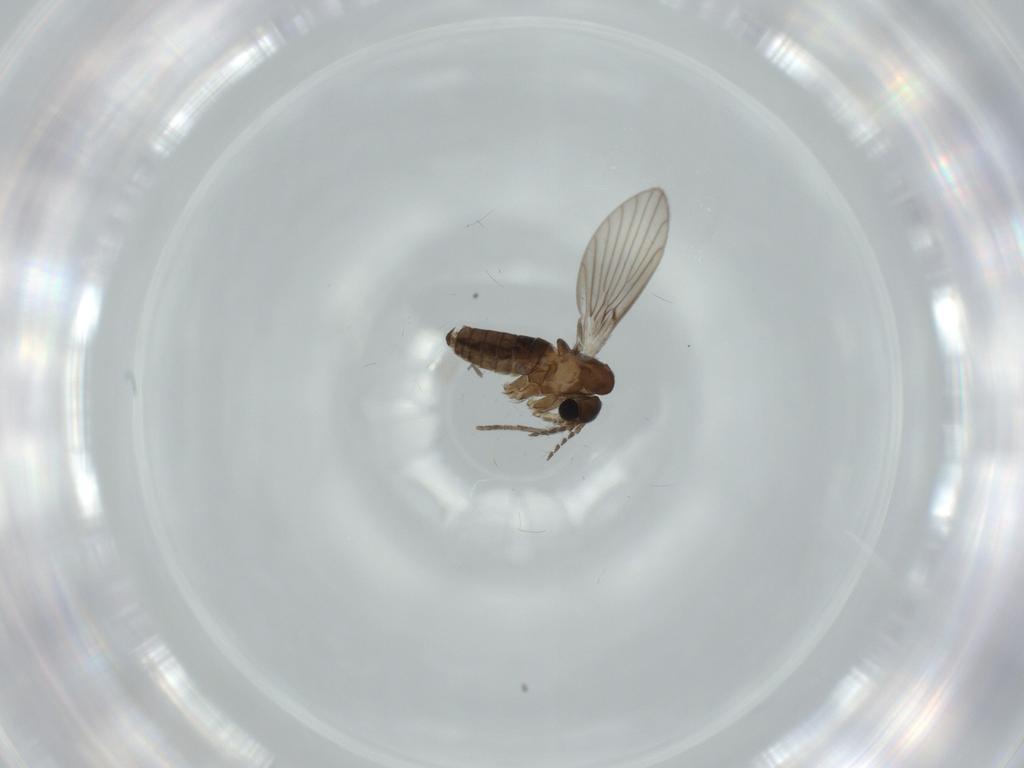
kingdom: Animalia
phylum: Arthropoda
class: Insecta
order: Diptera
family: Psychodidae
